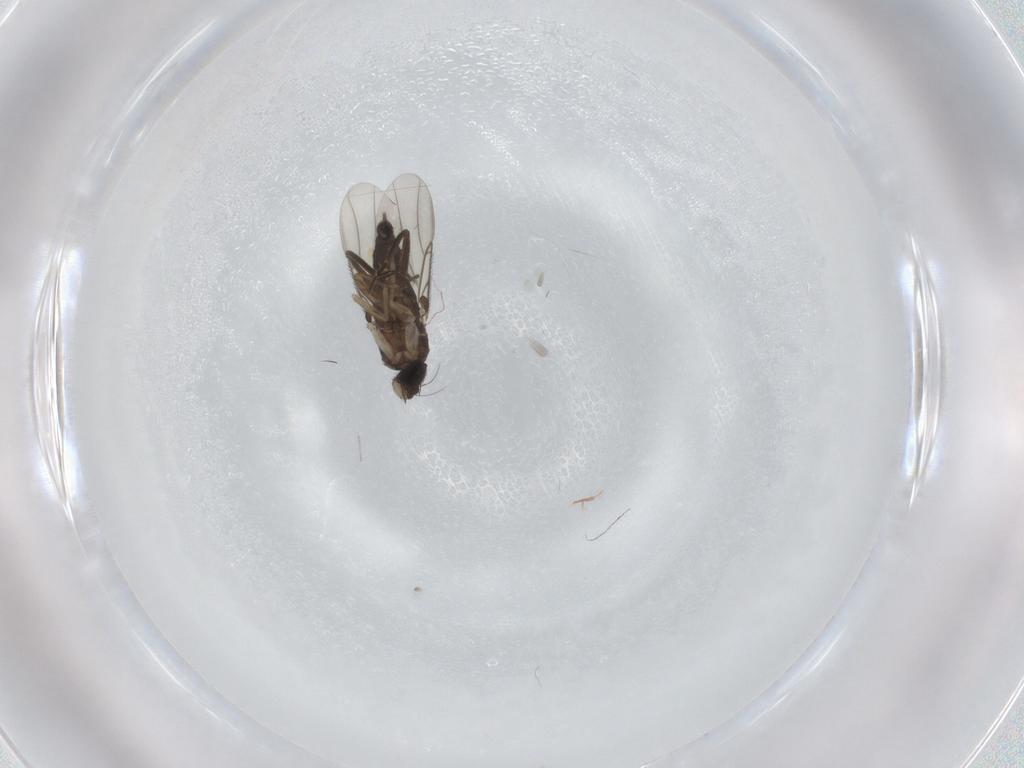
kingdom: Animalia
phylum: Arthropoda
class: Insecta
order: Diptera
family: Phoridae
